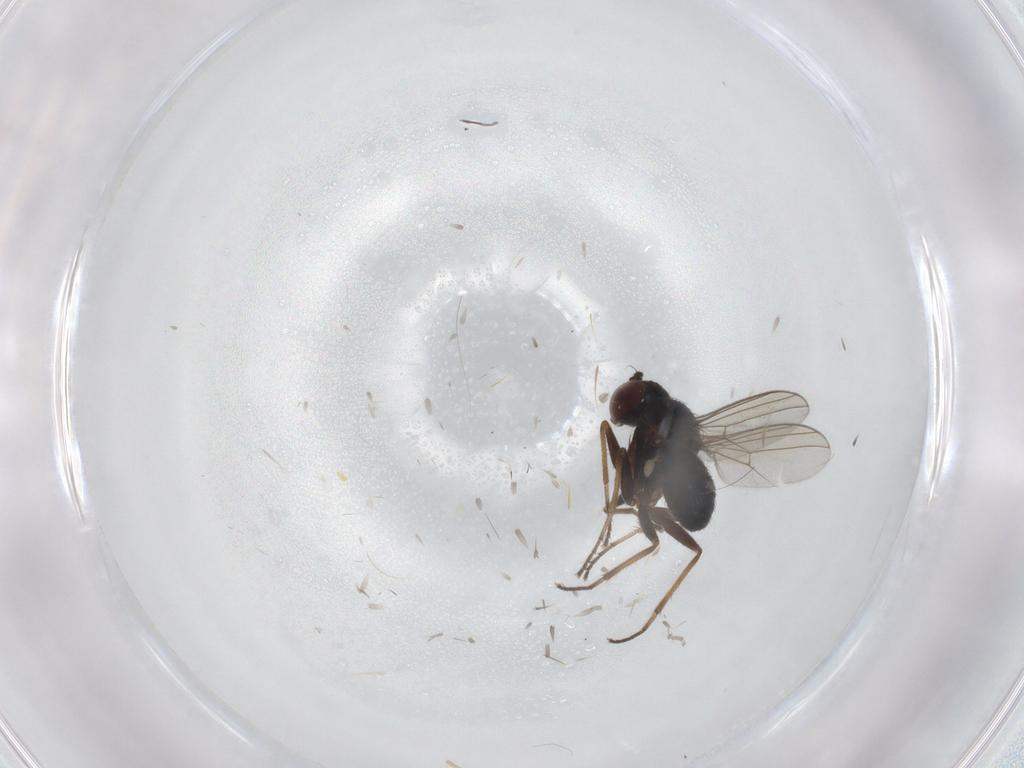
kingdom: Animalia
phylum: Arthropoda
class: Insecta
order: Diptera
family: Dolichopodidae
